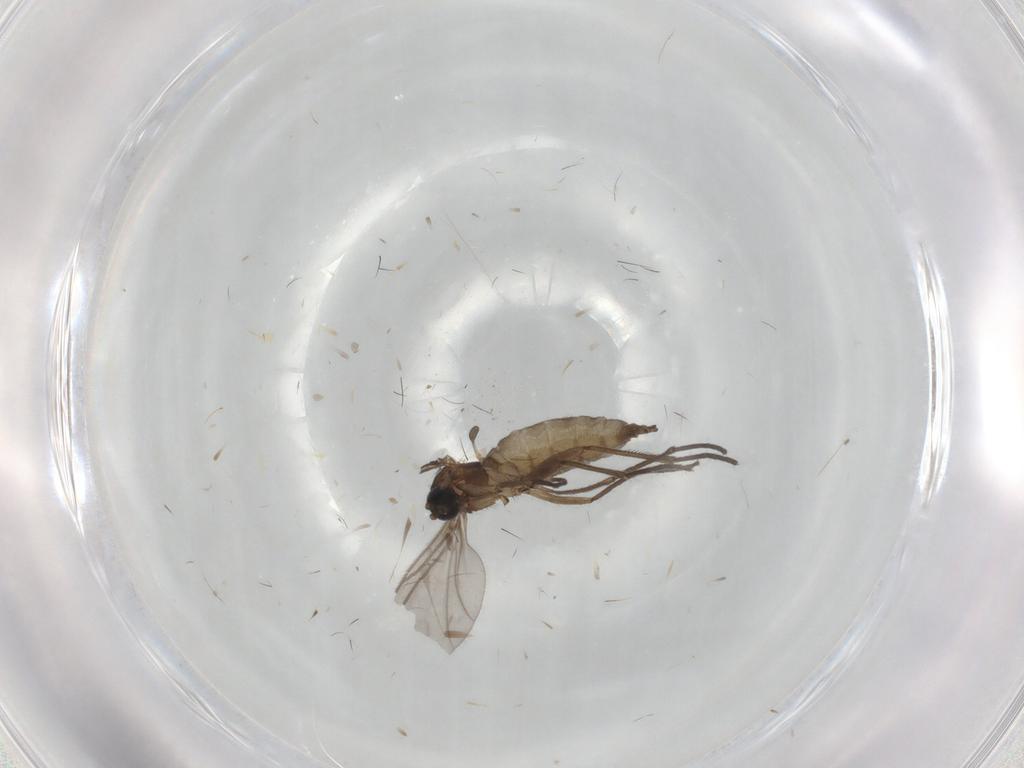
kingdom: Animalia
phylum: Arthropoda
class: Insecta
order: Diptera
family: Sciaridae
